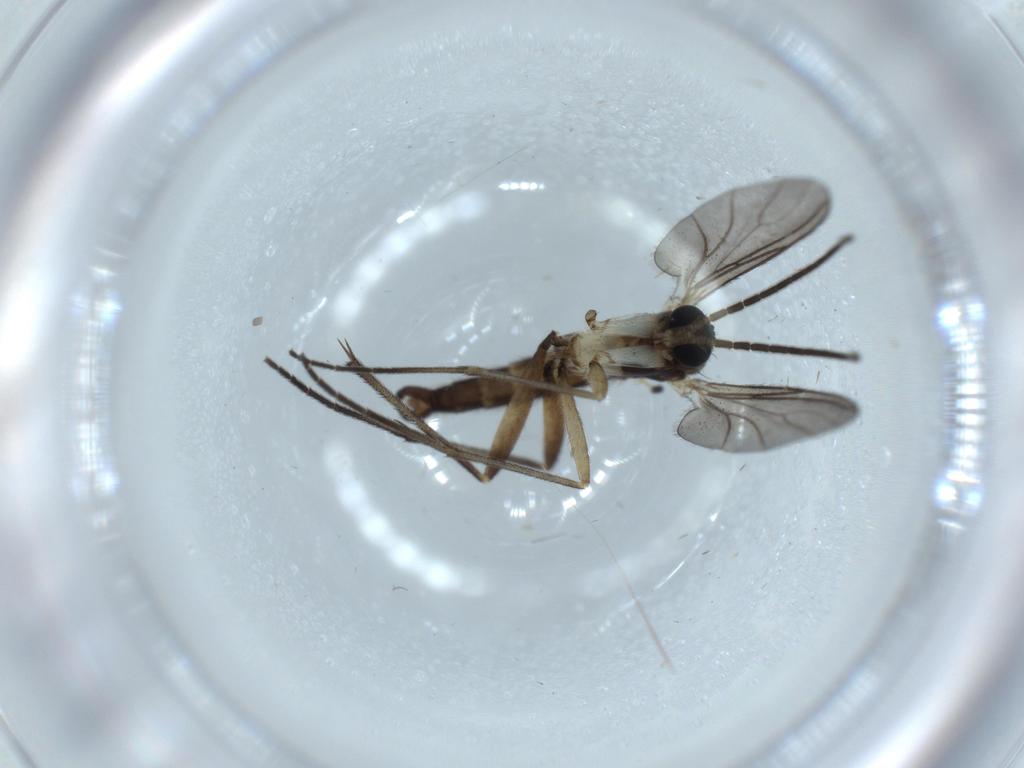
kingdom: Animalia
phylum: Arthropoda
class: Insecta
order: Diptera
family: Sciaridae
